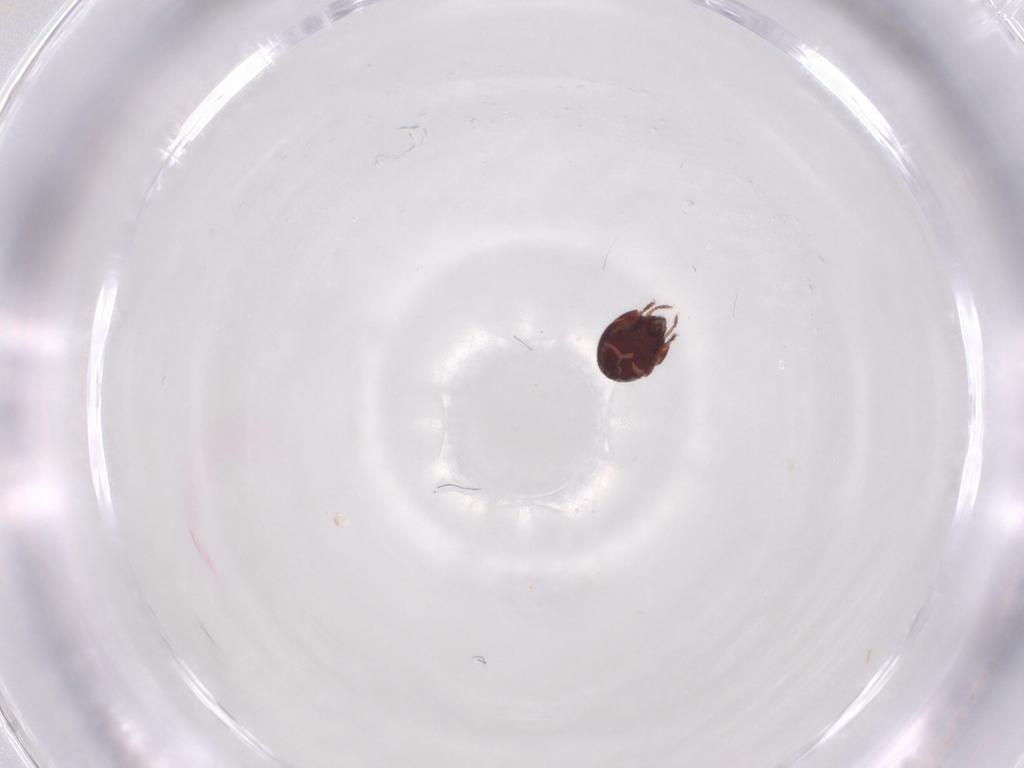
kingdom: Animalia
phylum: Arthropoda
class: Arachnida
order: Sarcoptiformes
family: Humerobatidae
